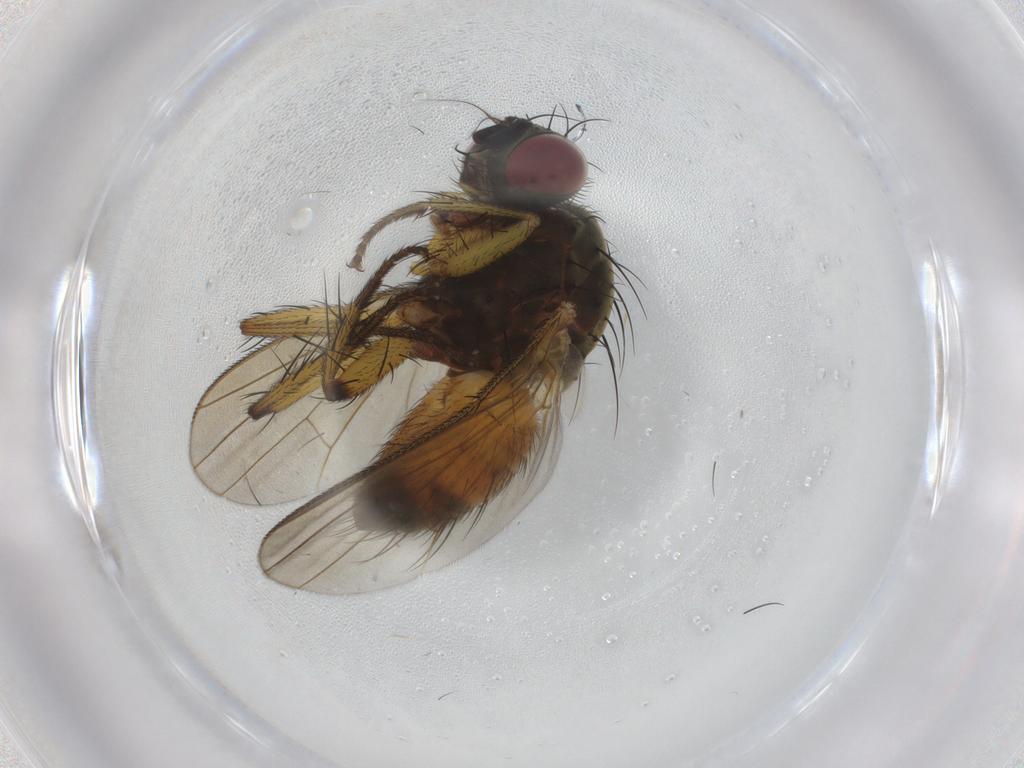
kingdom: Animalia
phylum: Arthropoda
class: Insecta
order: Diptera
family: Muscidae
